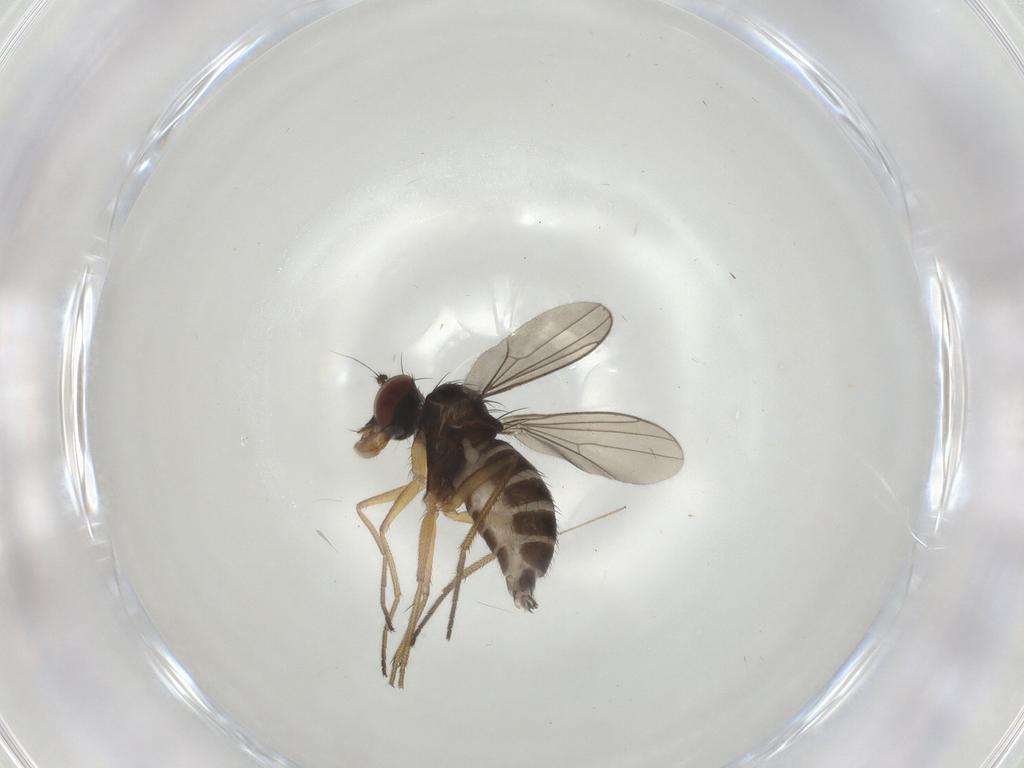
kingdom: Animalia
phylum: Arthropoda
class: Insecta
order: Diptera
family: Dolichopodidae
